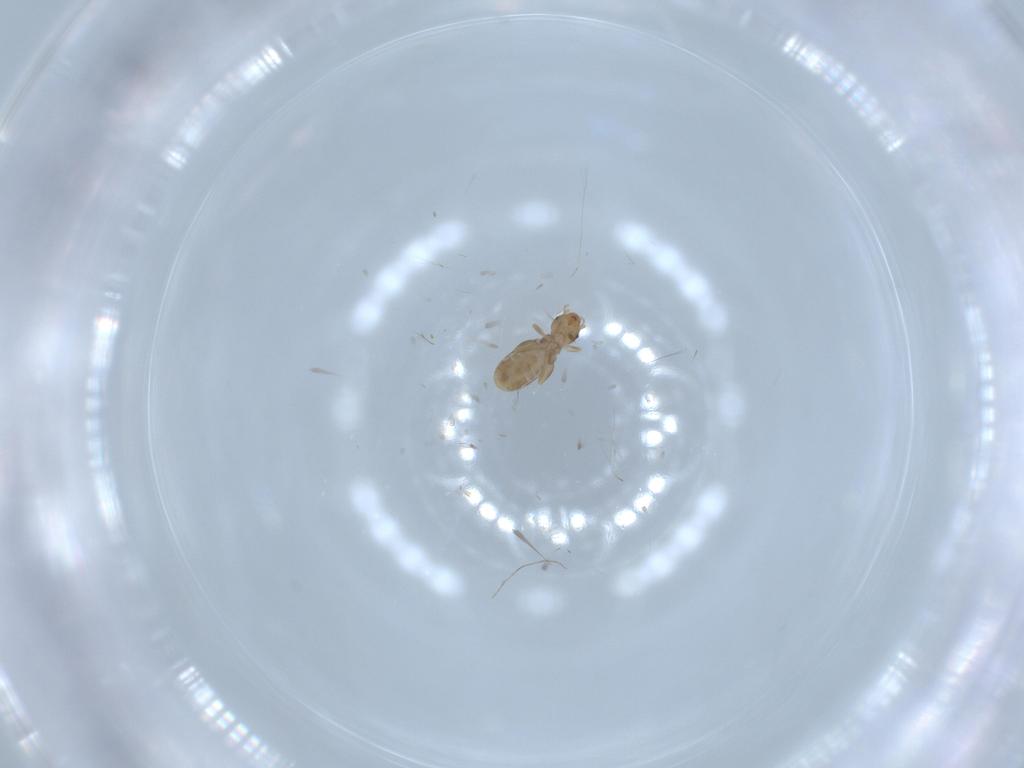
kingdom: Animalia
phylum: Arthropoda
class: Insecta
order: Psocodea
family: Liposcelididae
